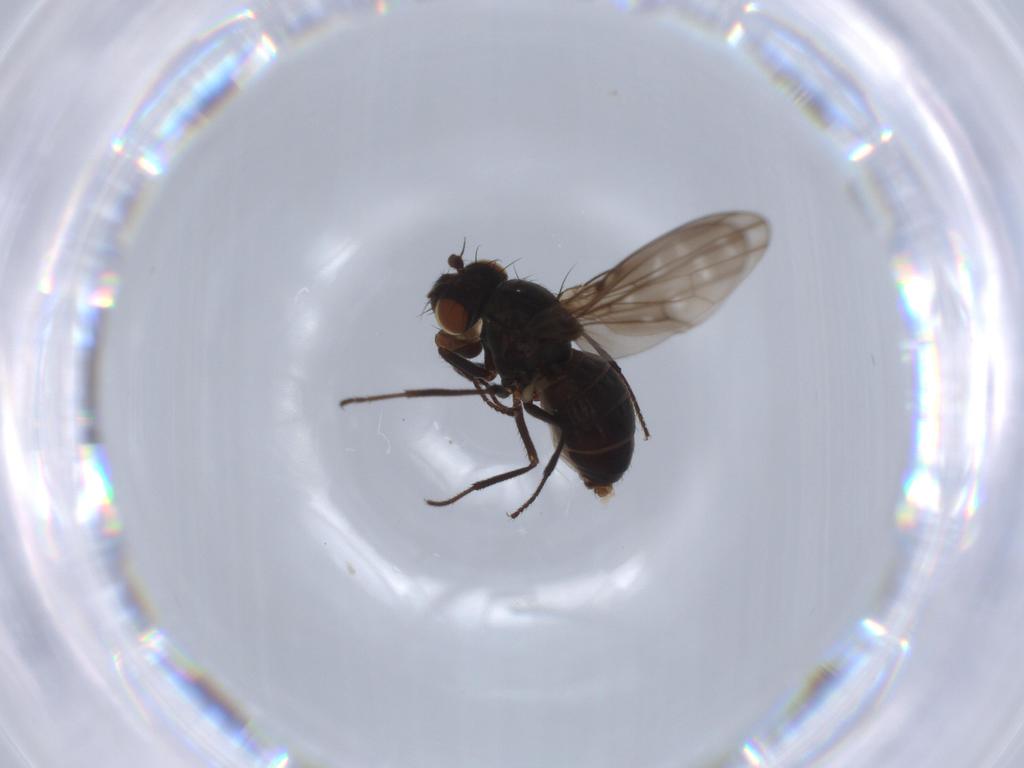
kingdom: Animalia
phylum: Arthropoda
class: Insecta
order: Diptera
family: Ephydridae
